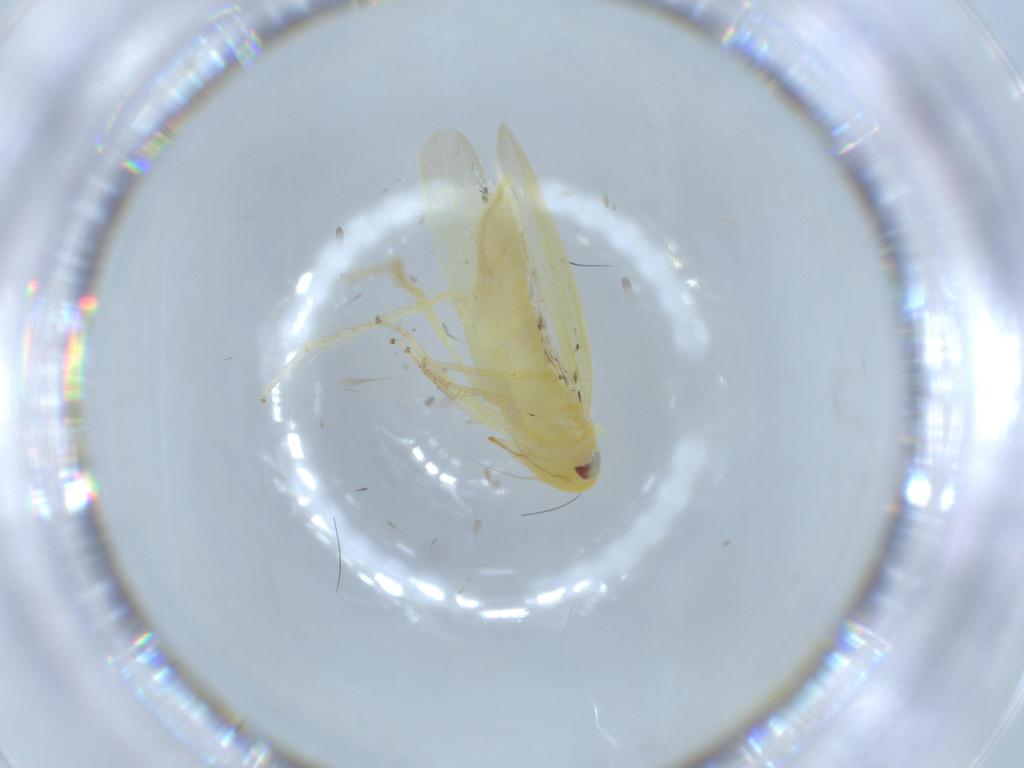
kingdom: Animalia
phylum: Arthropoda
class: Insecta
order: Hemiptera
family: Cicadellidae
